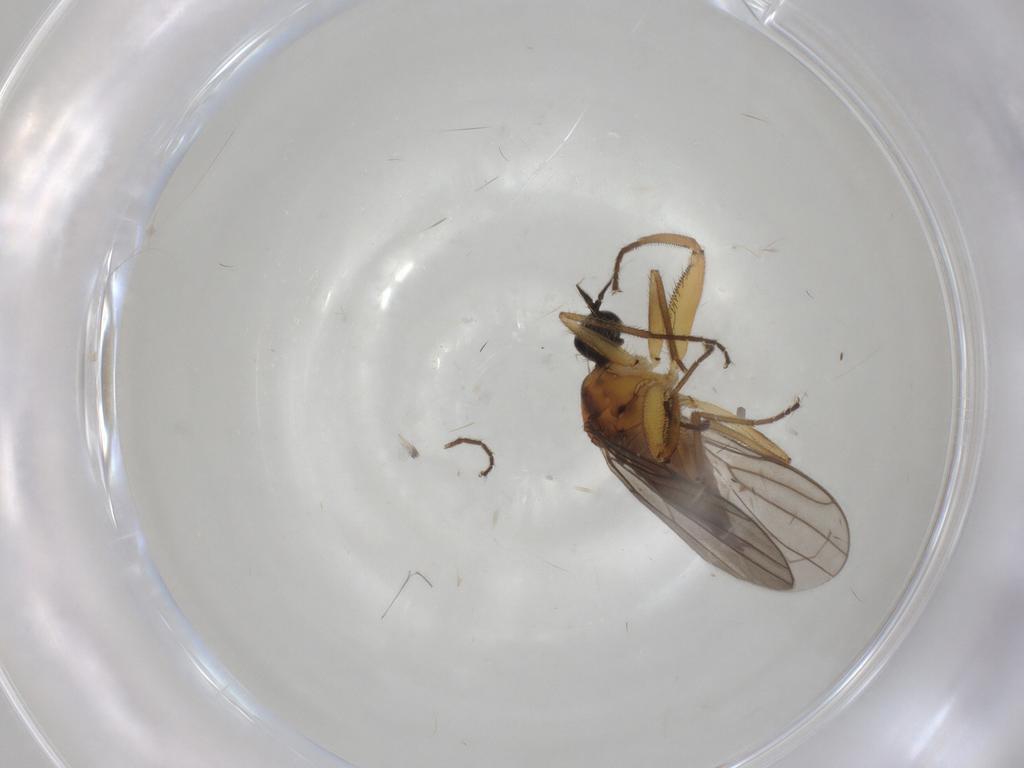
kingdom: Animalia
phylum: Arthropoda
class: Insecta
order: Diptera
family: Hybotidae
